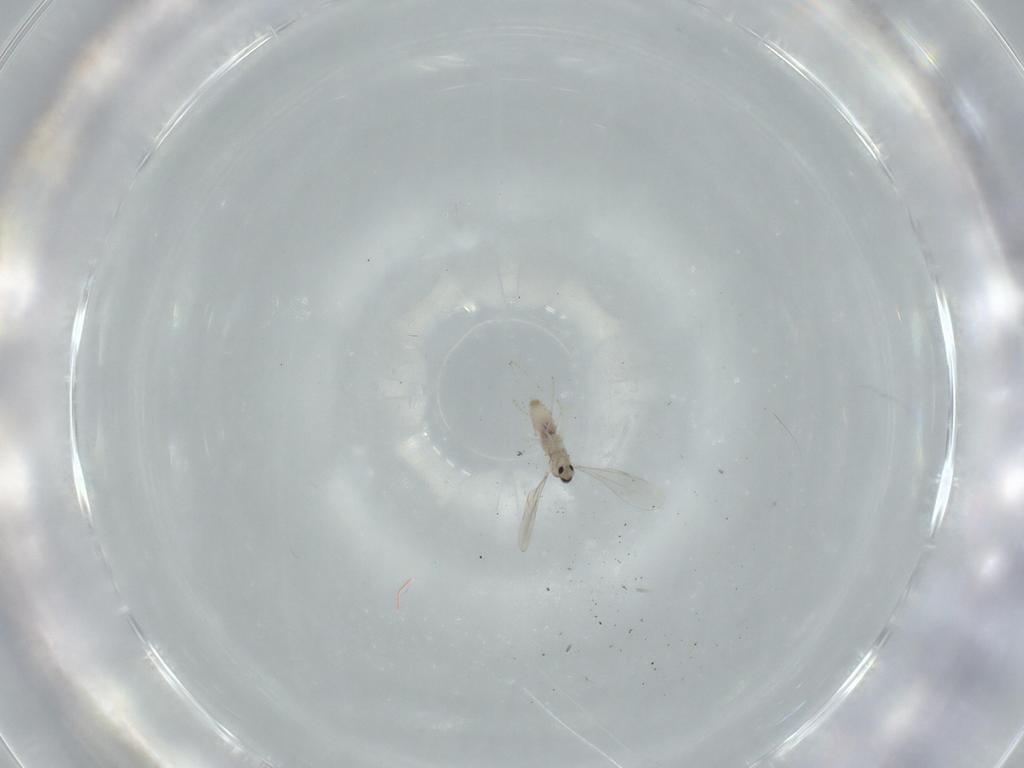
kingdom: Animalia
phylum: Arthropoda
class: Insecta
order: Diptera
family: Cecidomyiidae
